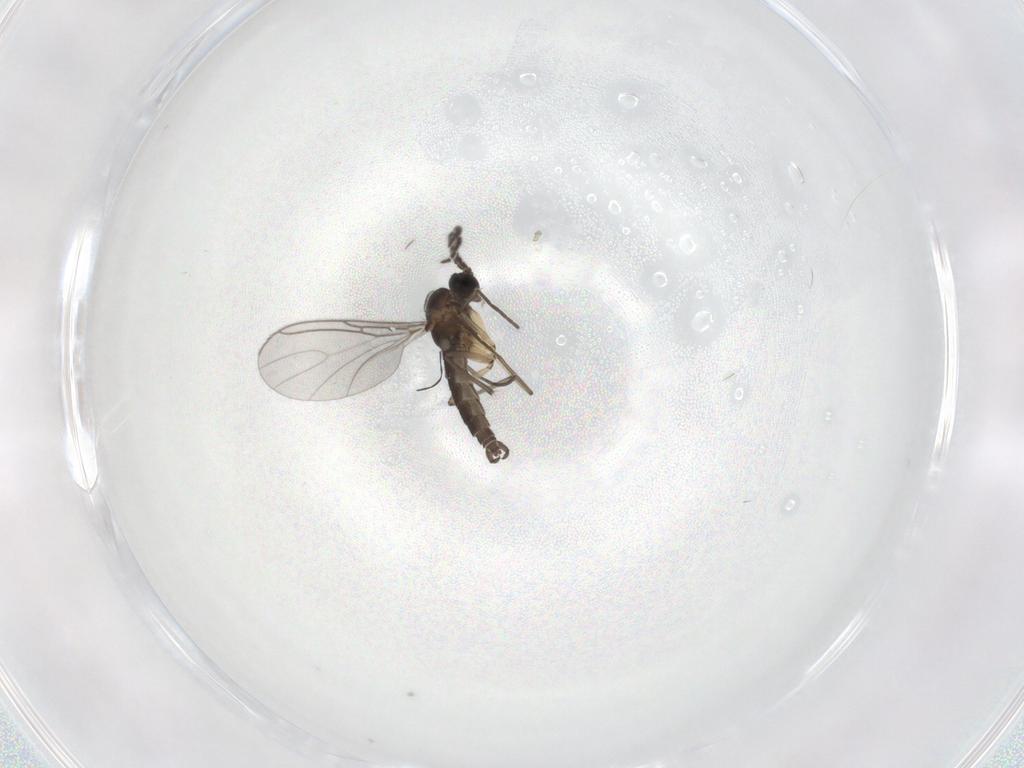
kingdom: Animalia
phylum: Arthropoda
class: Insecta
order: Diptera
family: Sciaridae
